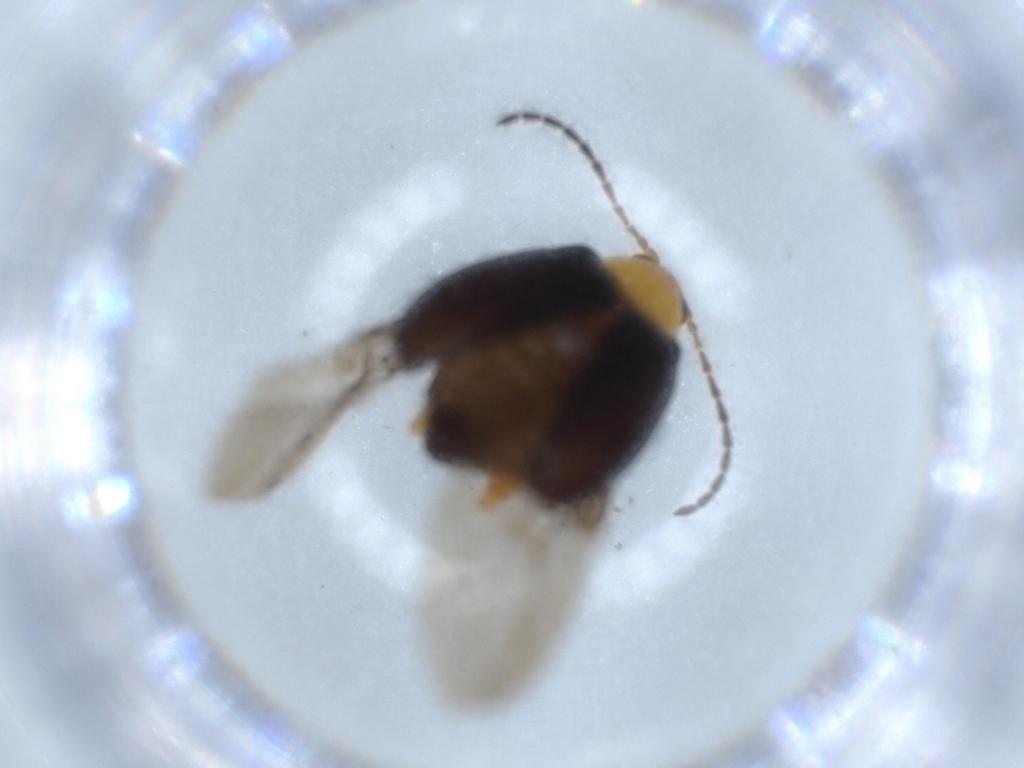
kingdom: Animalia
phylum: Arthropoda
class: Insecta
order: Coleoptera
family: Chrysomelidae
